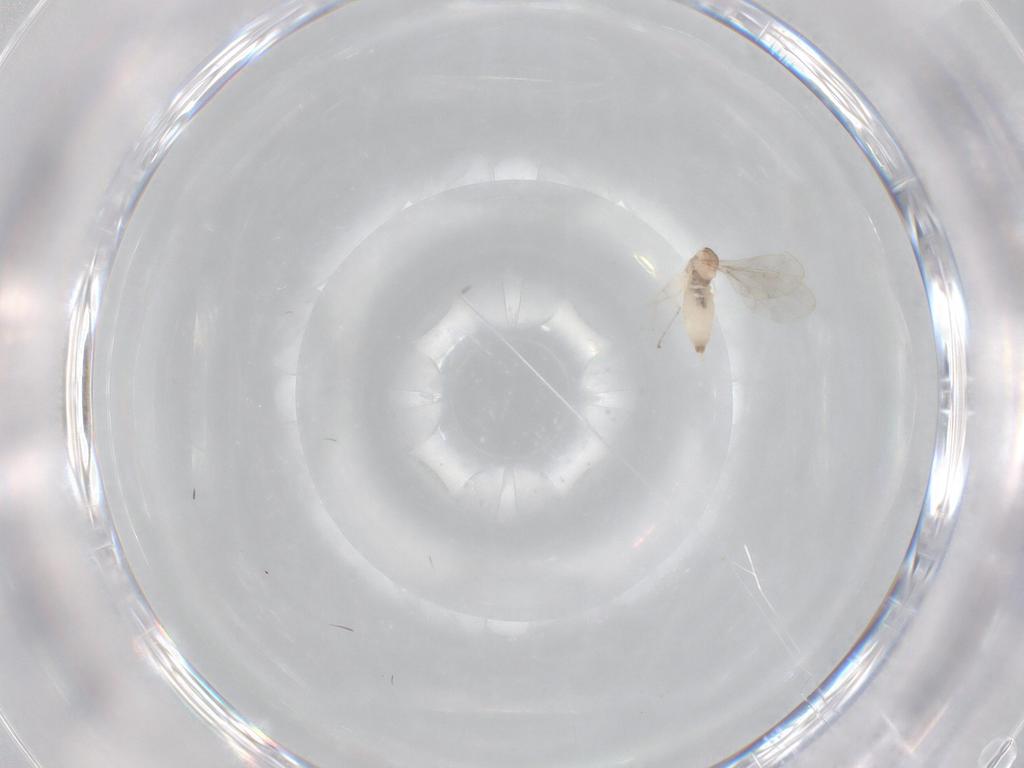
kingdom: Animalia
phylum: Arthropoda
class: Insecta
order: Diptera
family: Cecidomyiidae
